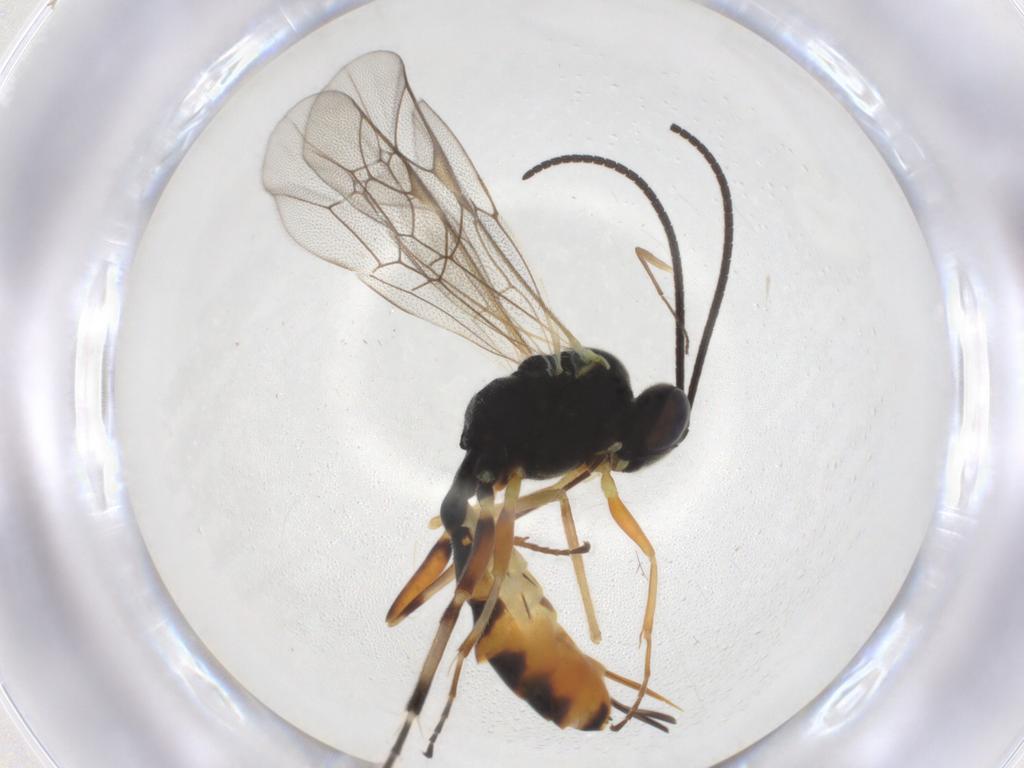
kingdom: Animalia
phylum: Arthropoda
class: Insecta
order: Hymenoptera
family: Ichneumonidae
